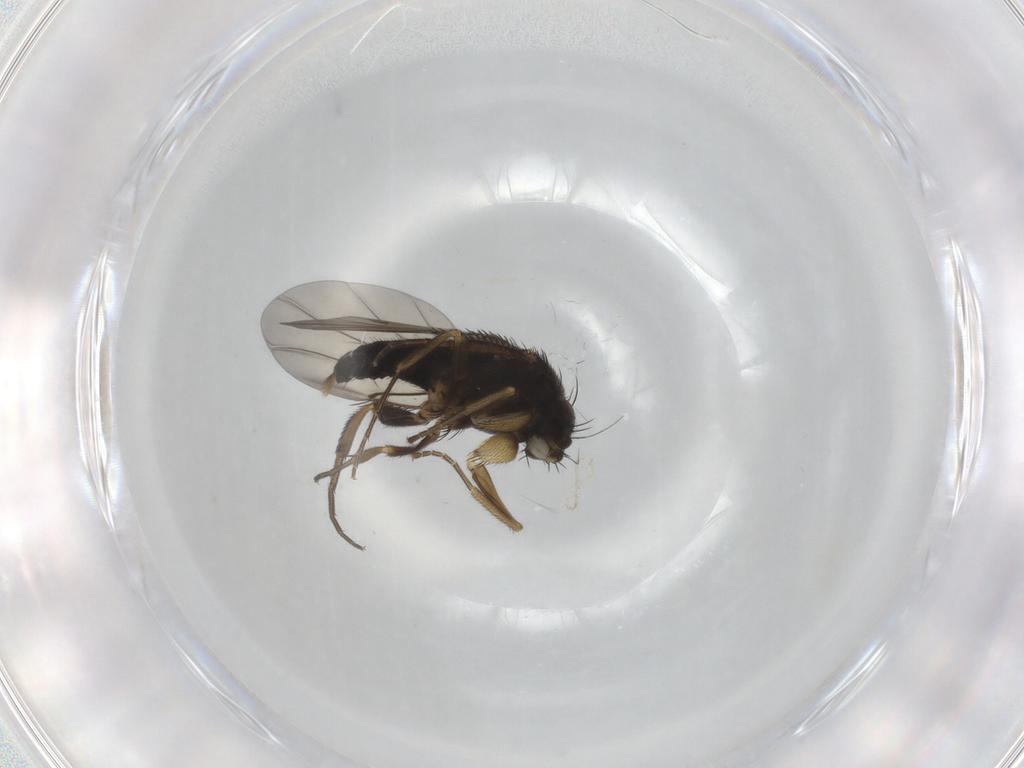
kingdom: Animalia
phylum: Arthropoda
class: Insecta
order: Diptera
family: Phoridae
